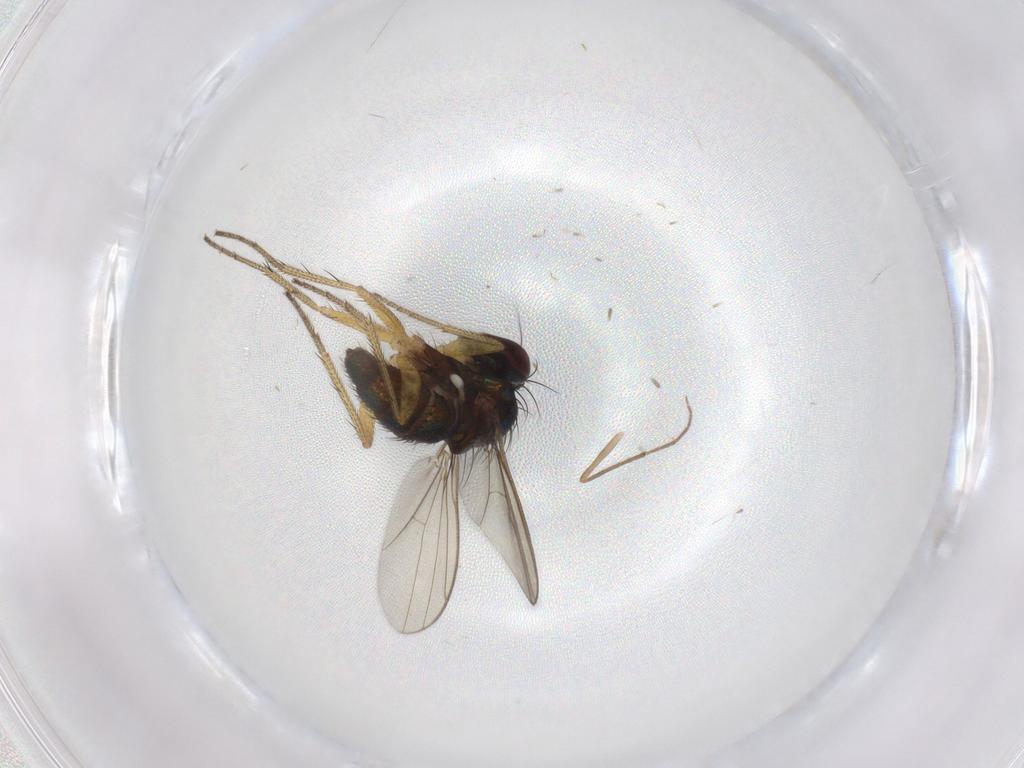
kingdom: Animalia
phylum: Arthropoda
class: Insecta
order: Diptera
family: Chironomidae
